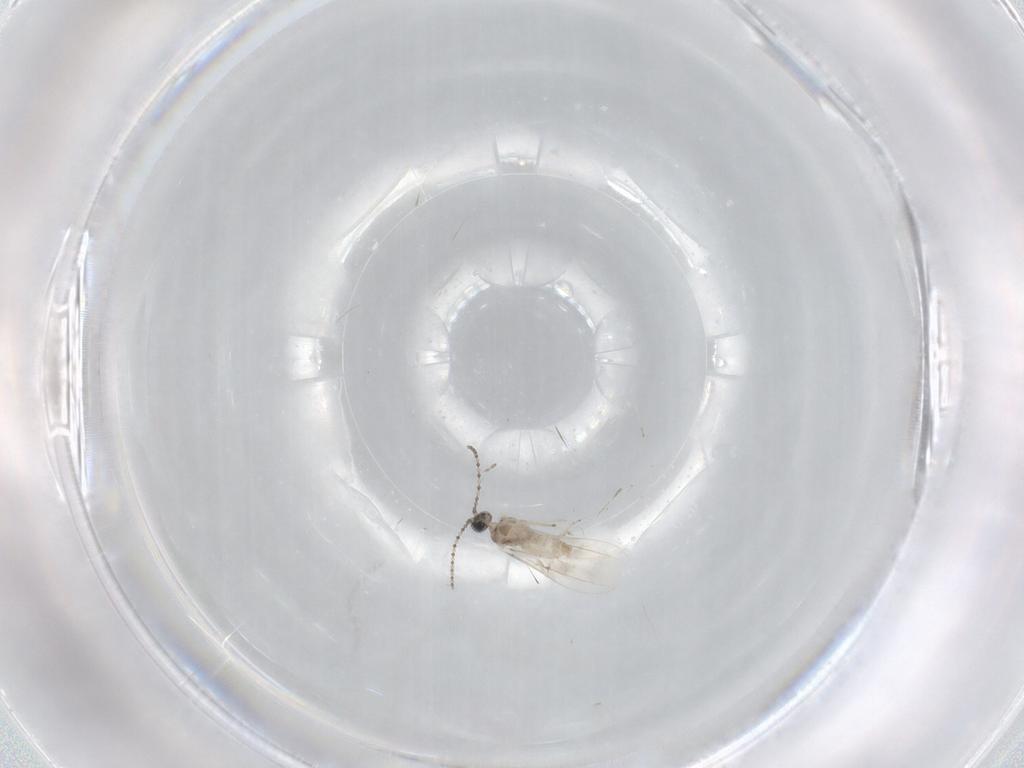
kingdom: Animalia
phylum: Arthropoda
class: Insecta
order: Diptera
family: Cecidomyiidae
